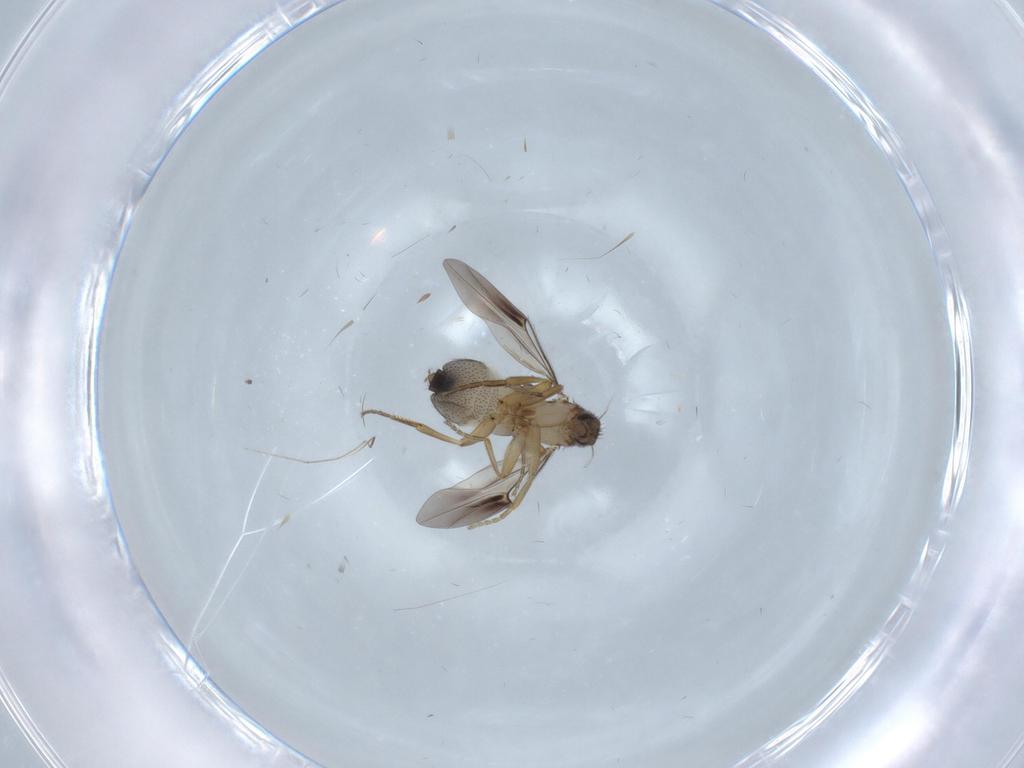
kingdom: Animalia
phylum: Arthropoda
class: Insecta
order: Diptera
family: Cecidomyiidae
